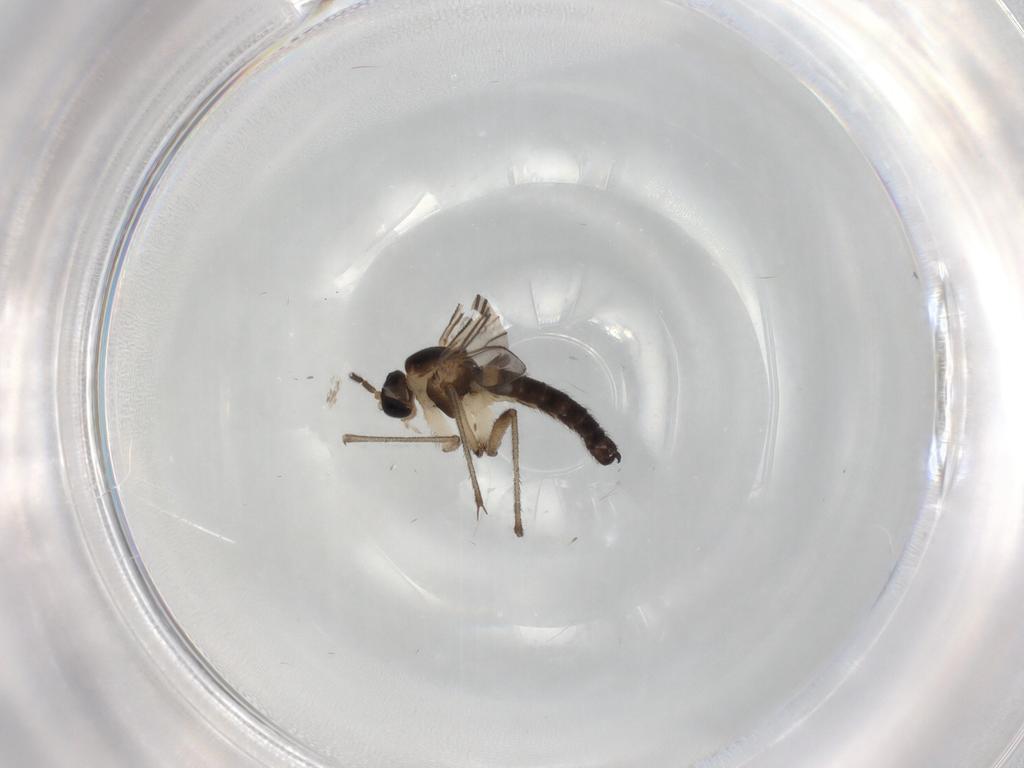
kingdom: Animalia
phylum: Arthropoda
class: Insecta
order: Diptera
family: Sciaridae
